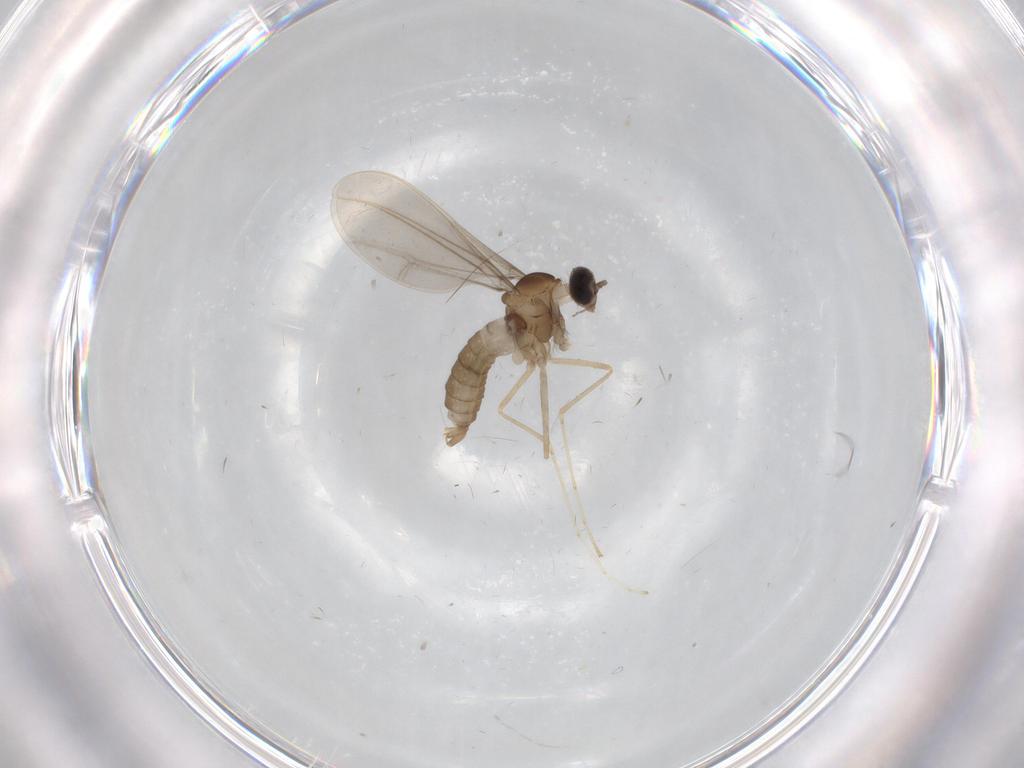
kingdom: Animalia
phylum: Arthropoda
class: Insecta
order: Diptera
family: Cecidomyiidae
